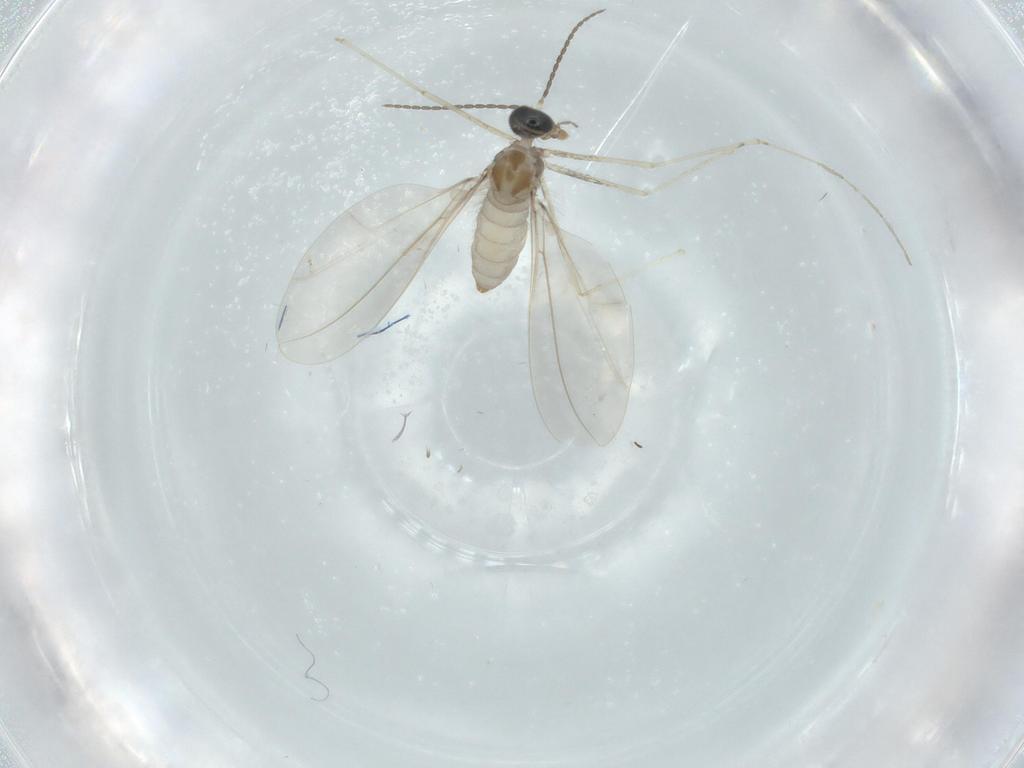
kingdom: Animalia
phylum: Arthropoda
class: Insecta
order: Diptera
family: Cecidomyiidae
